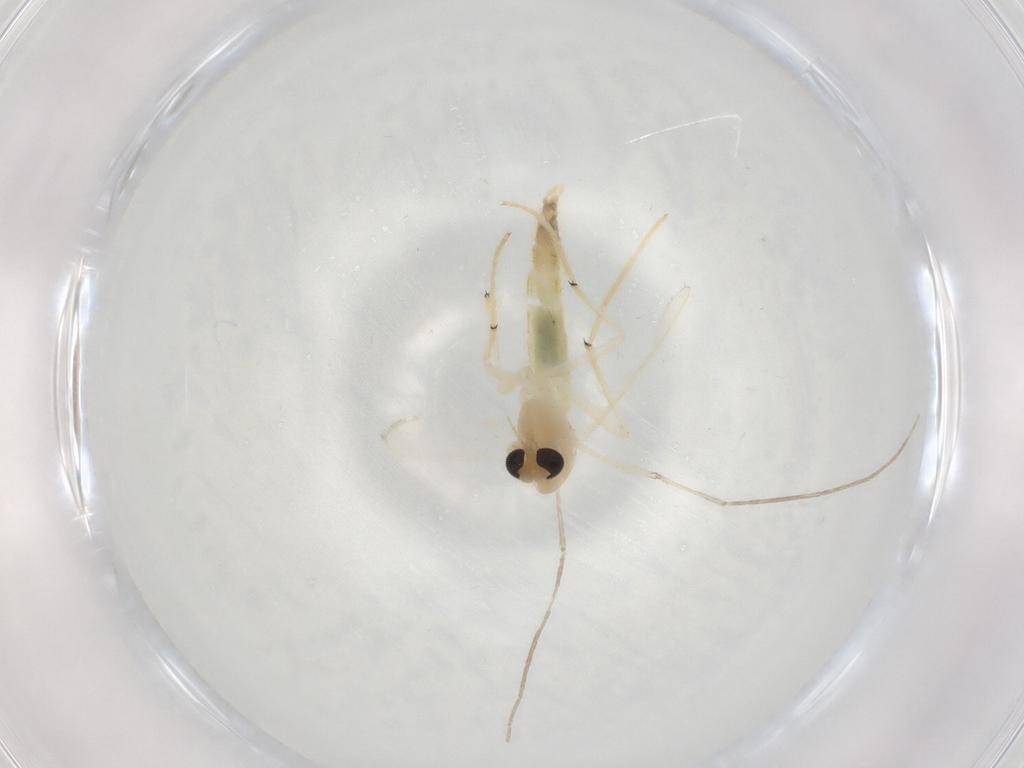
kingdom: Animalia
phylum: Arthropoda
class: Insecta
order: Diptera
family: Chironomidae
